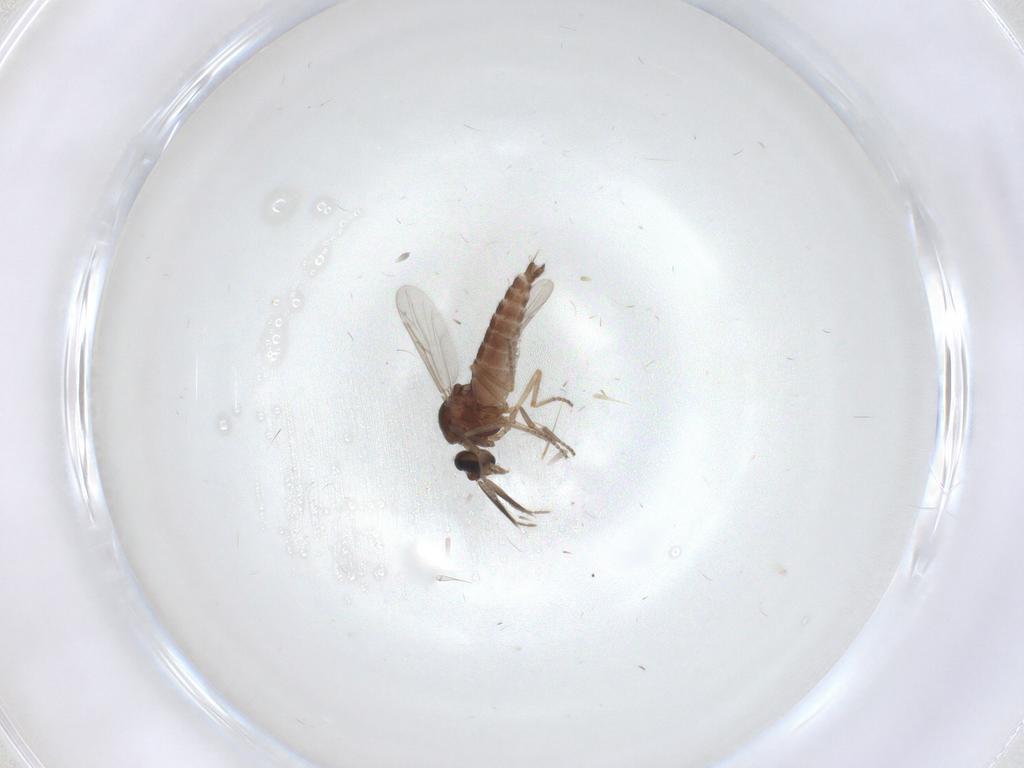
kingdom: Animalia
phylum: Arthropoda
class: Insecta
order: Diptera
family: Ceratopogonidae
